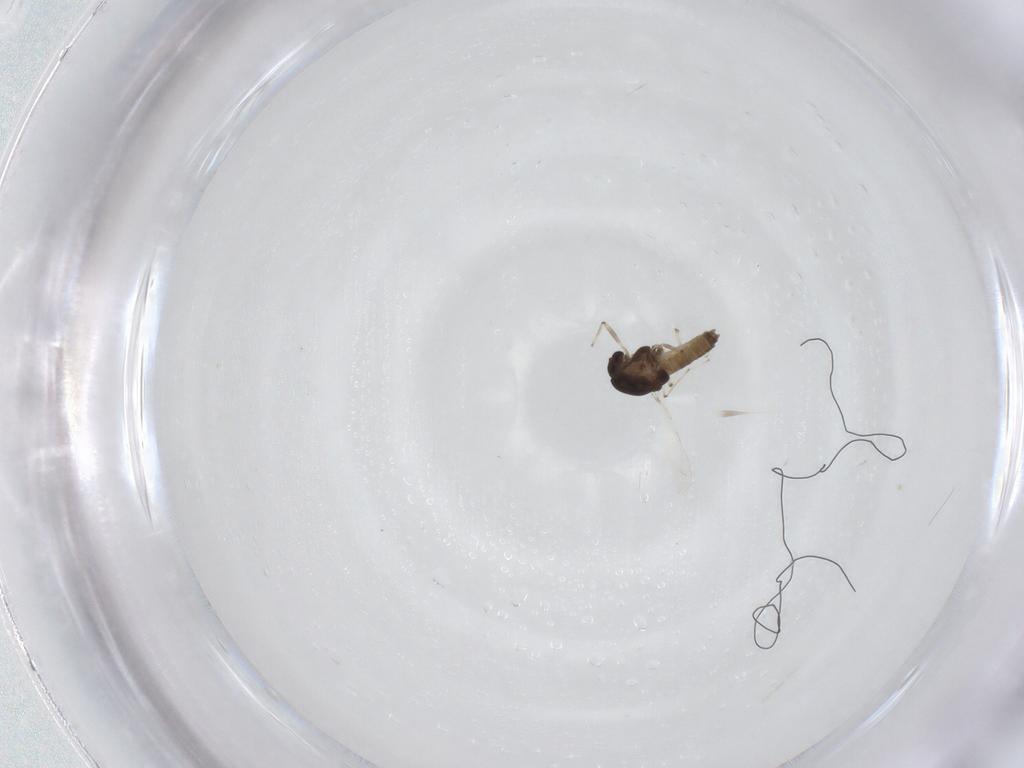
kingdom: Animalia
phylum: Arthropoda
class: Insecta
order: Diptera
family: Chironomidae
